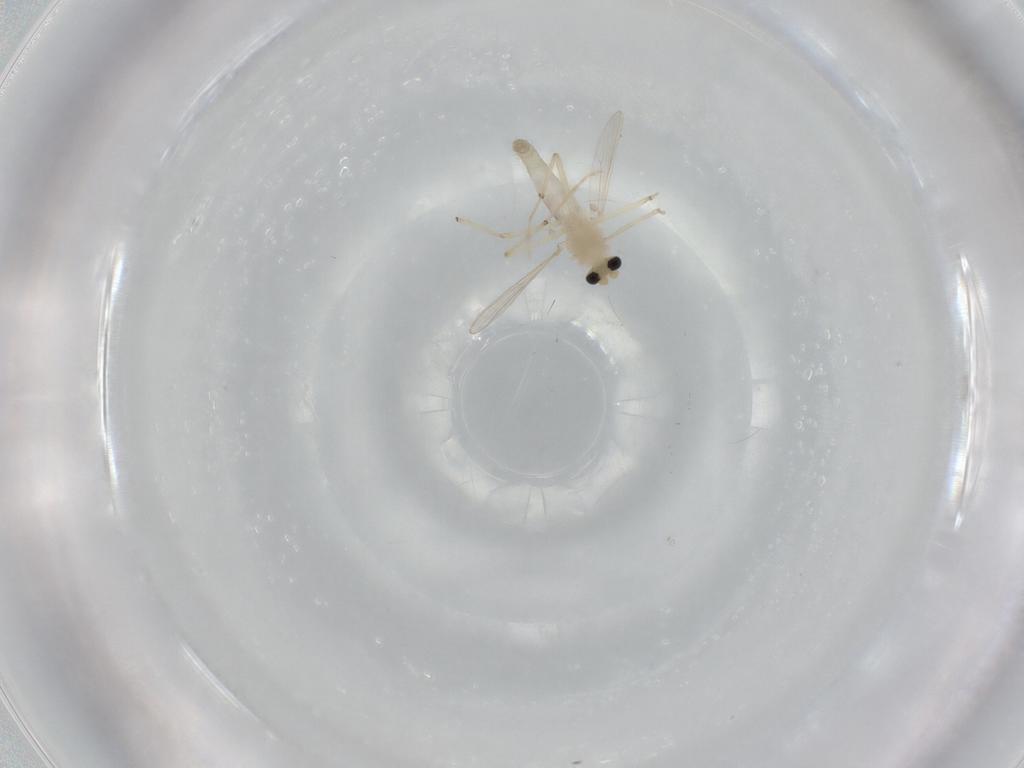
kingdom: Animalia
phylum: Arthropoda
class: Insecta
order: Diptera
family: Chironomidae
